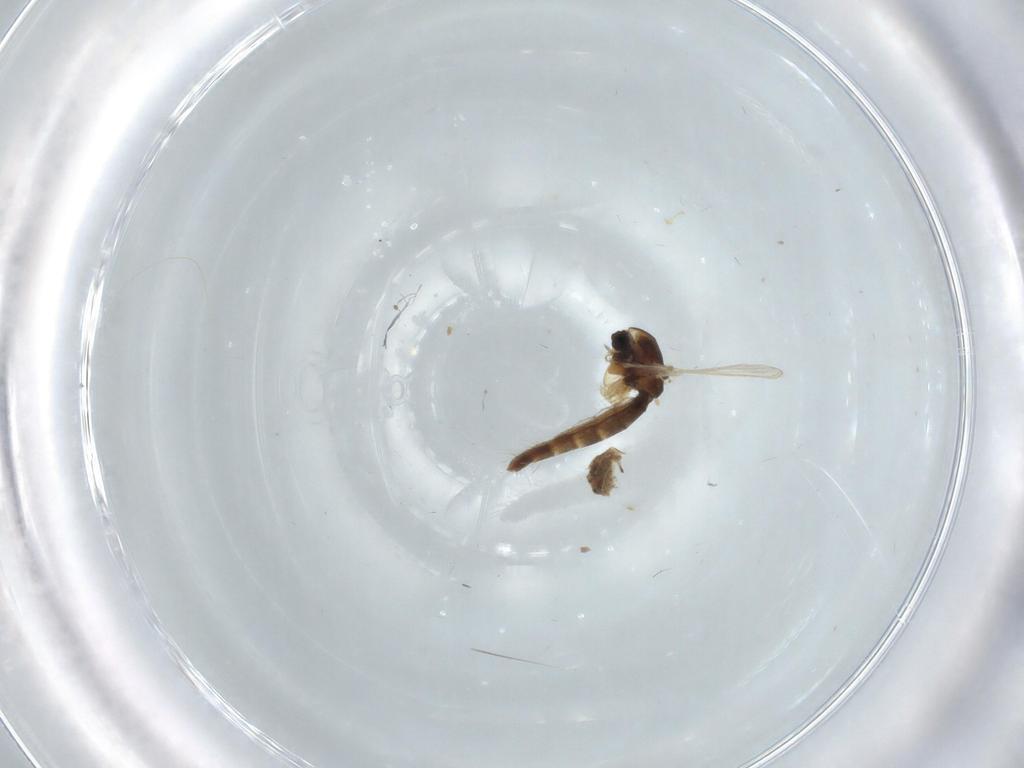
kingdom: Animalia
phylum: Arthropoda
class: Insecta
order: Diptera
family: Chironomidae
